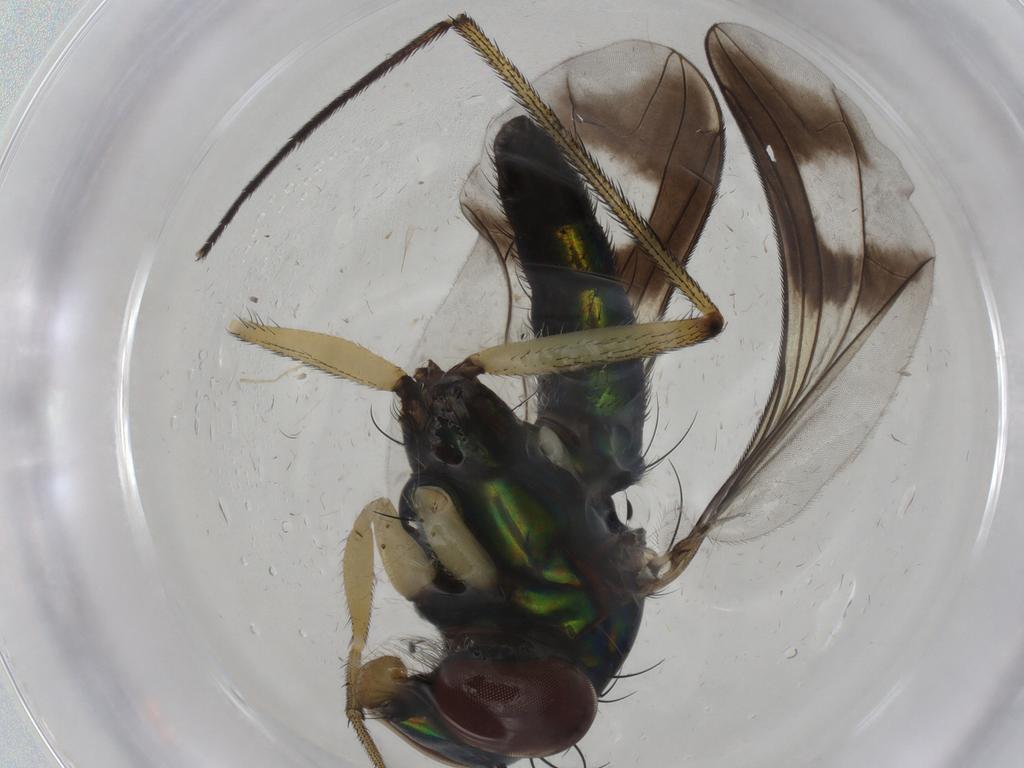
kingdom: Animalia
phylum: Arthropoda
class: Insecta
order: Diptera
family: Dolichopodidae
